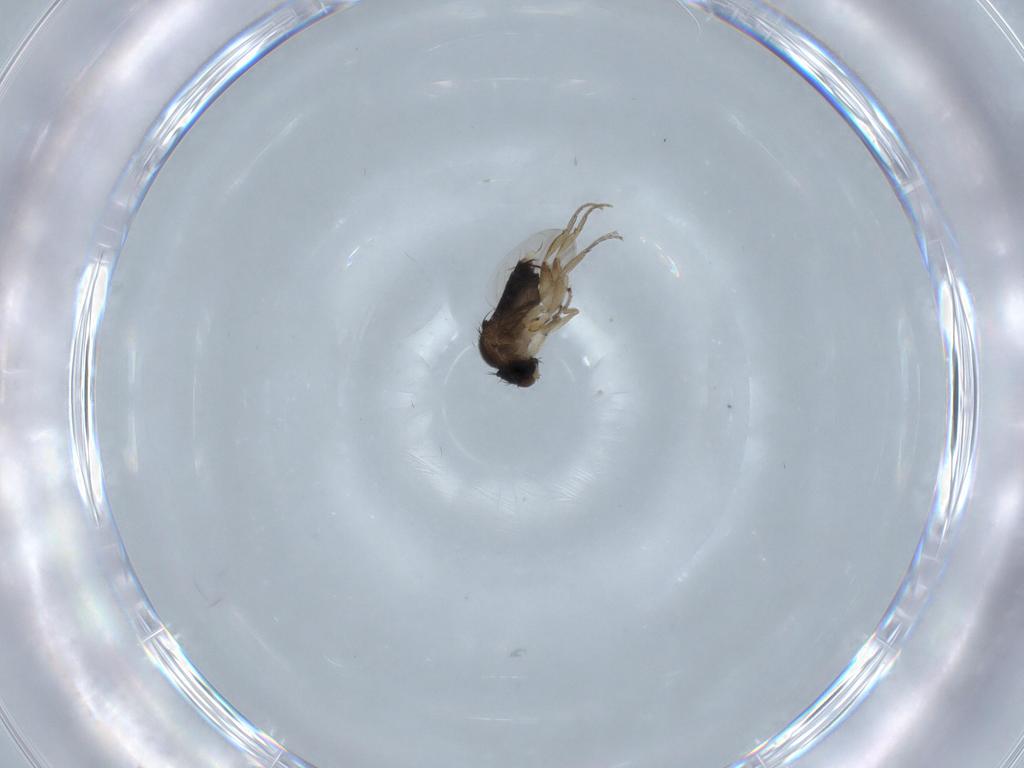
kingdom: Animalia
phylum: Arthropoda
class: Insecta
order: Diptera
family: Phoridae
